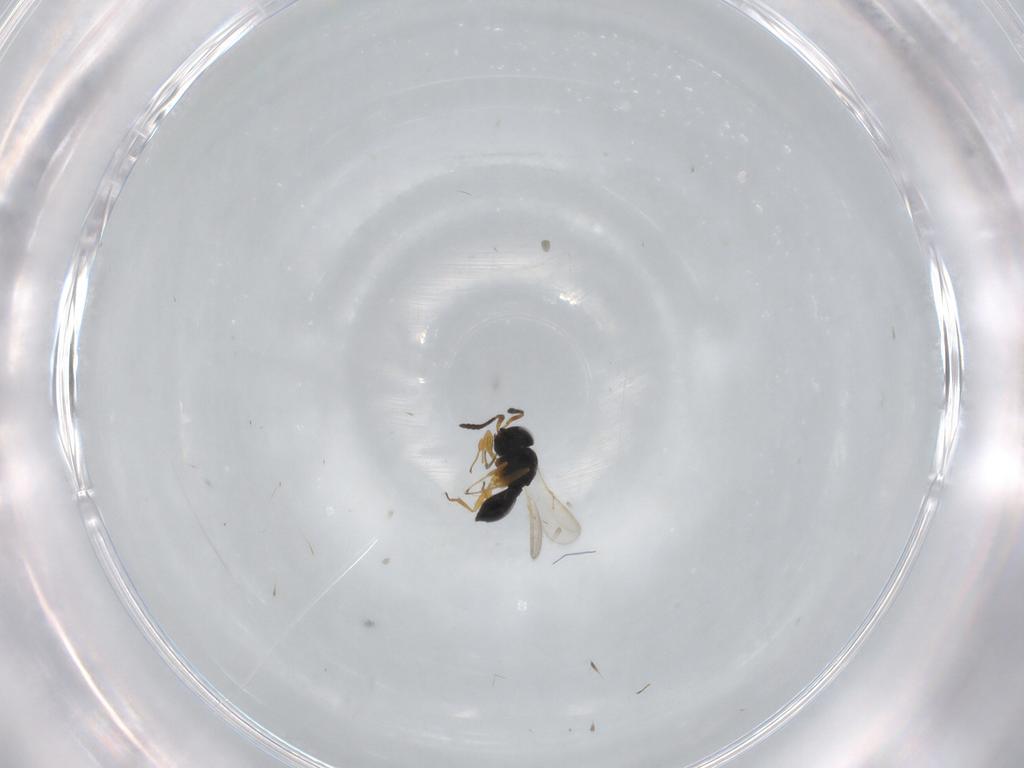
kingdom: Animalia
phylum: Arthropoda
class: Insecta
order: Hymenoptera
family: Scelionidae
